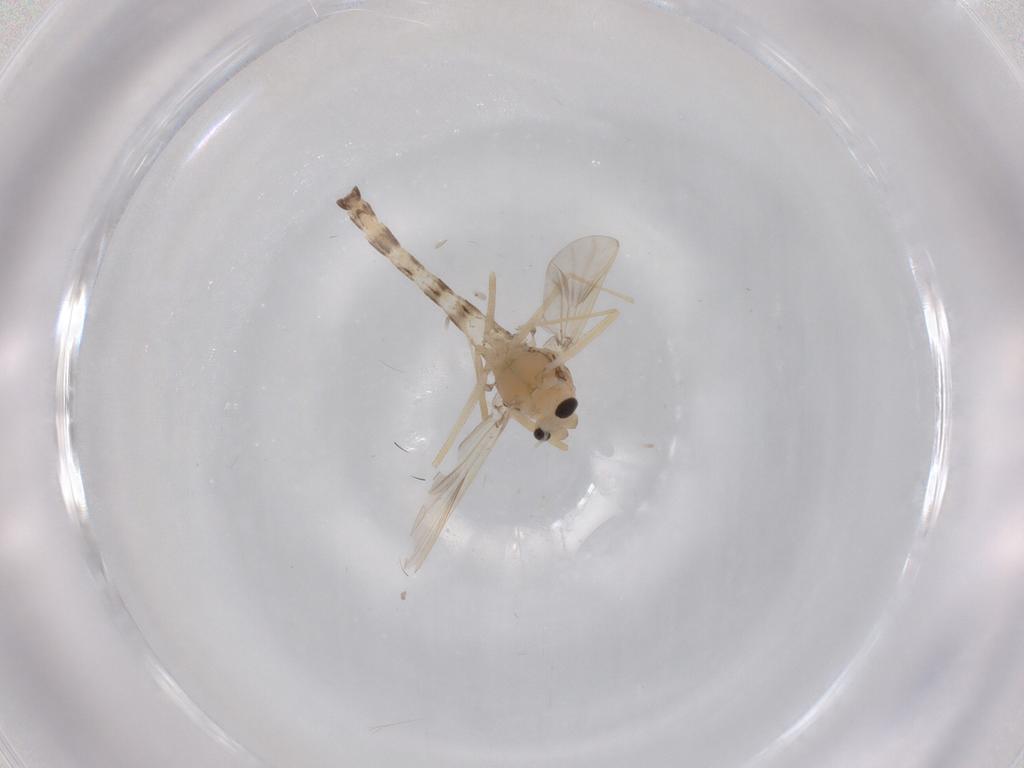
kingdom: Animalia
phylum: Arthropoda
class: Insecta
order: Diptera
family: Chironomidae
